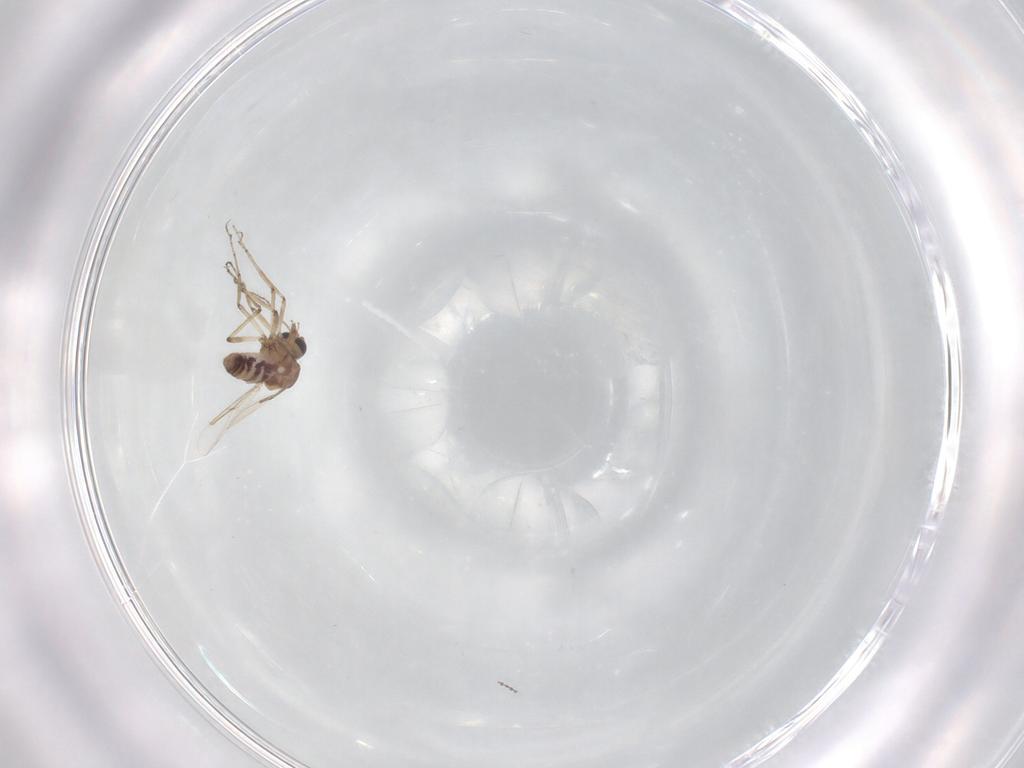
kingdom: Animalia
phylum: Arthropoda
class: Insecta
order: Diptera
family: Ceratopogonidae
